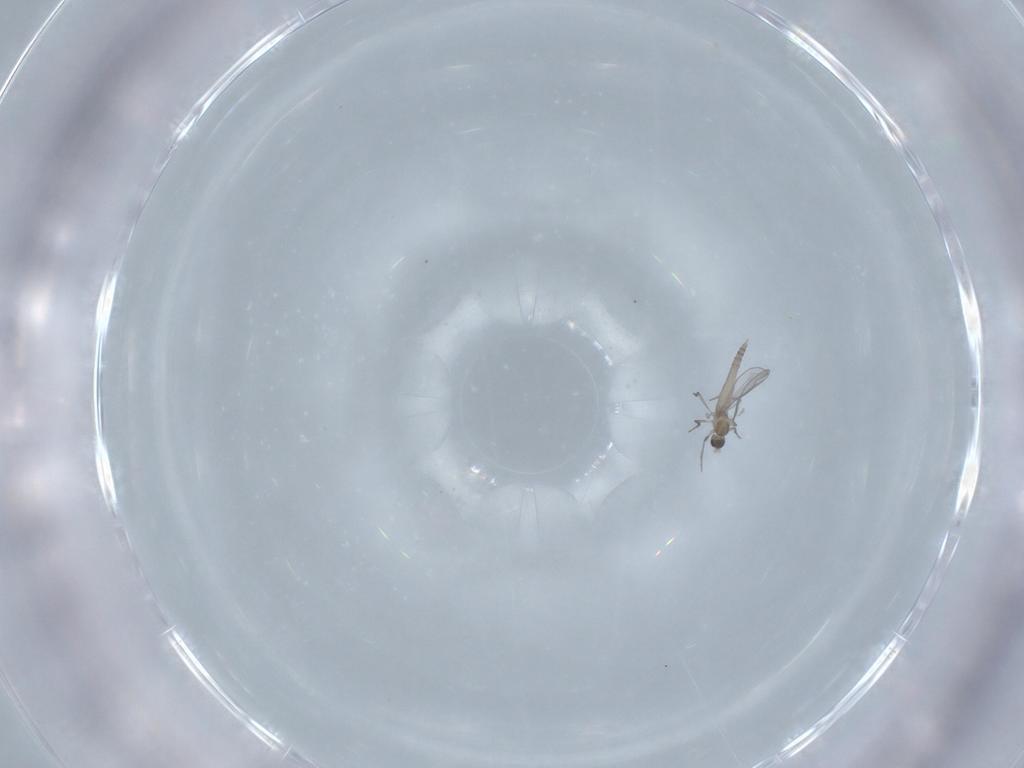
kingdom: Animalia
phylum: Arthropoda
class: Insecta
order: Diptera
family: Cecidomyiidae
